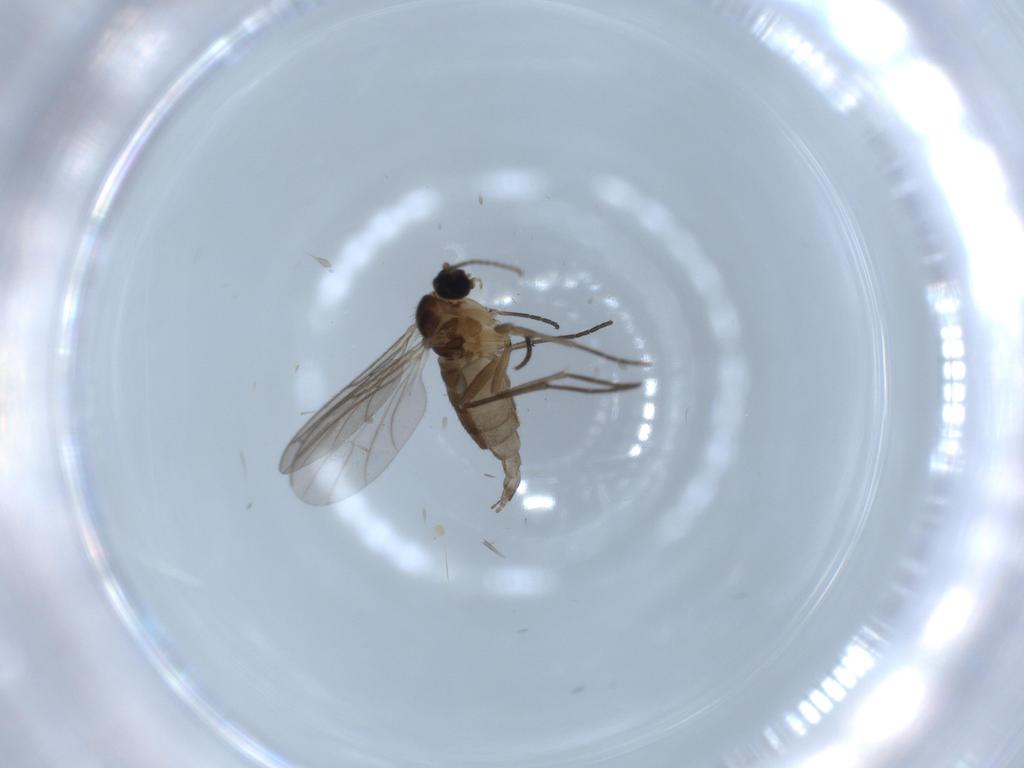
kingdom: Animalia
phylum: Arthropoda
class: Insecta
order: Diptera
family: Sciaridae
